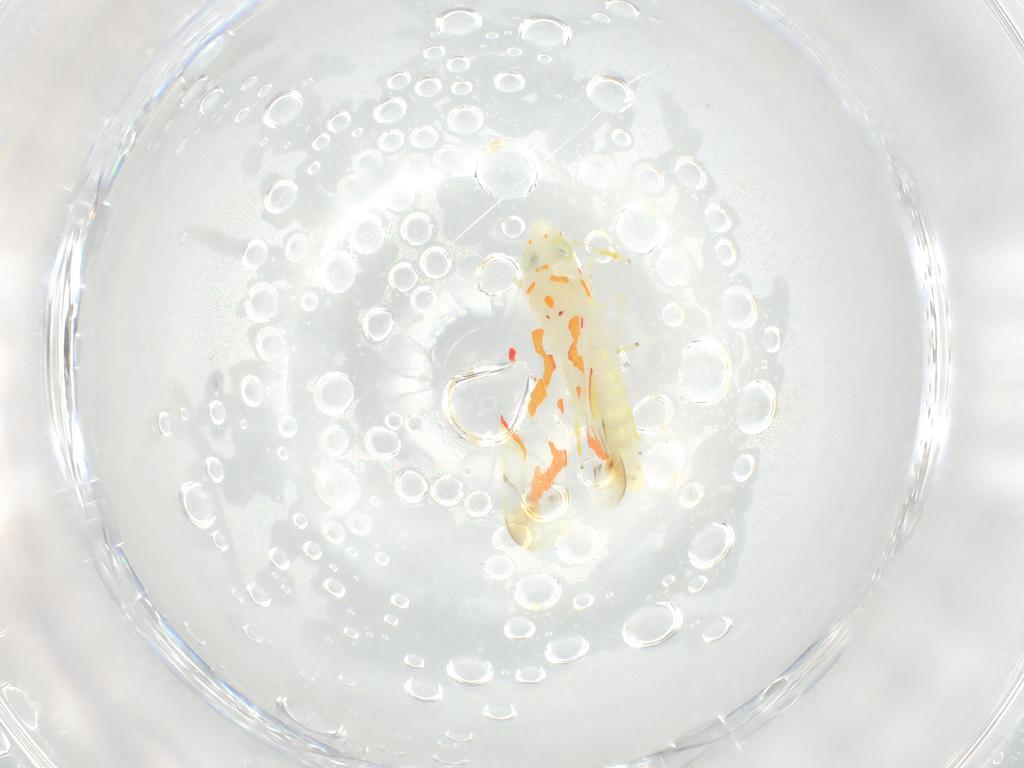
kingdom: Animalia
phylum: Arthropoda
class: Insecta
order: Hemiptera
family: Cicadellidae
